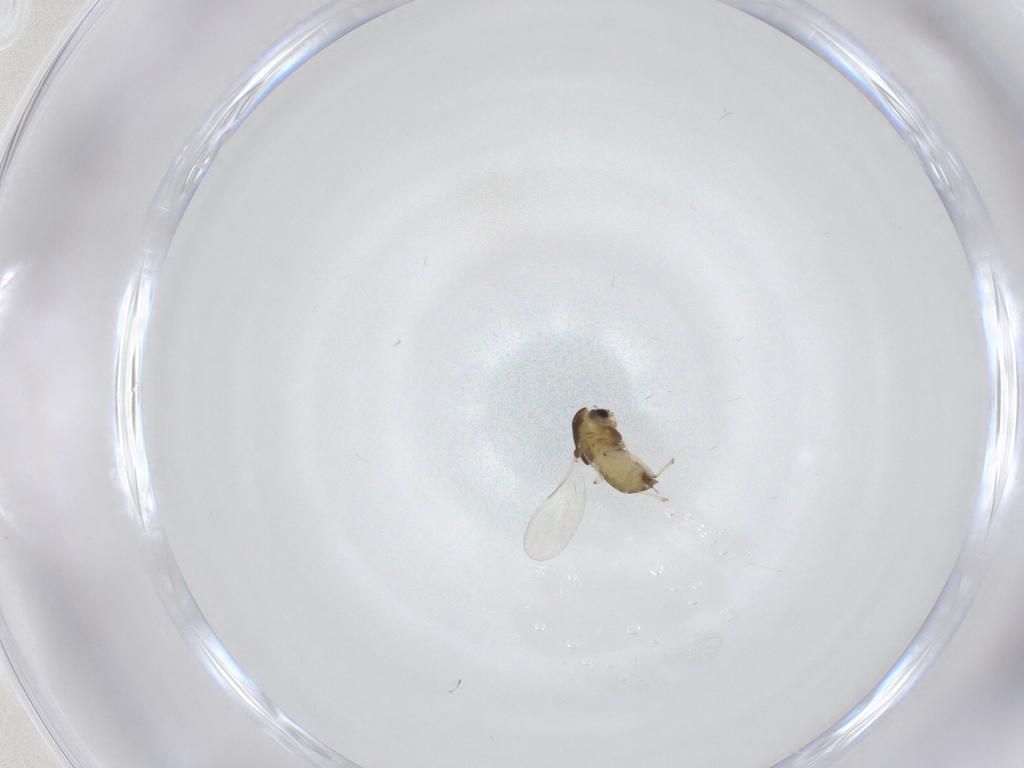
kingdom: Animalia
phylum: Arthropoda
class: Insecta
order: Diptera
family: Chironomidae
